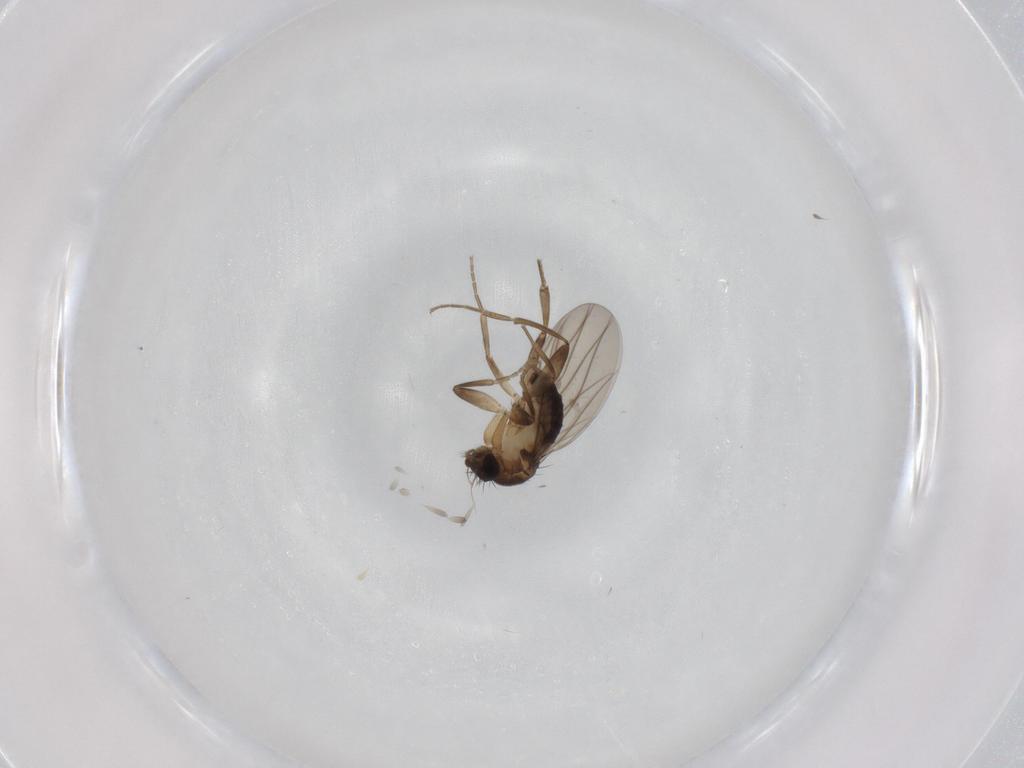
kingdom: Animalia
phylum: Arthropoda
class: Insecta
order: Diptera
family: Phoridae
